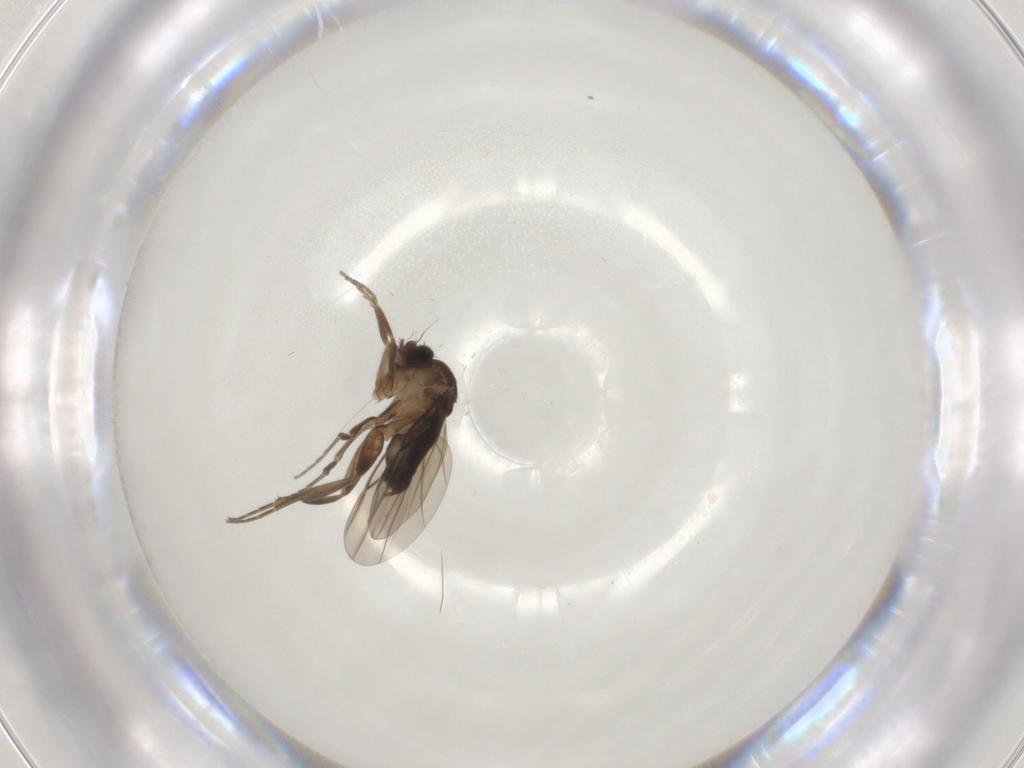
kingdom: Animalia
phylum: Arthropoda
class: Insecta
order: Diptera
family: Phoridae
